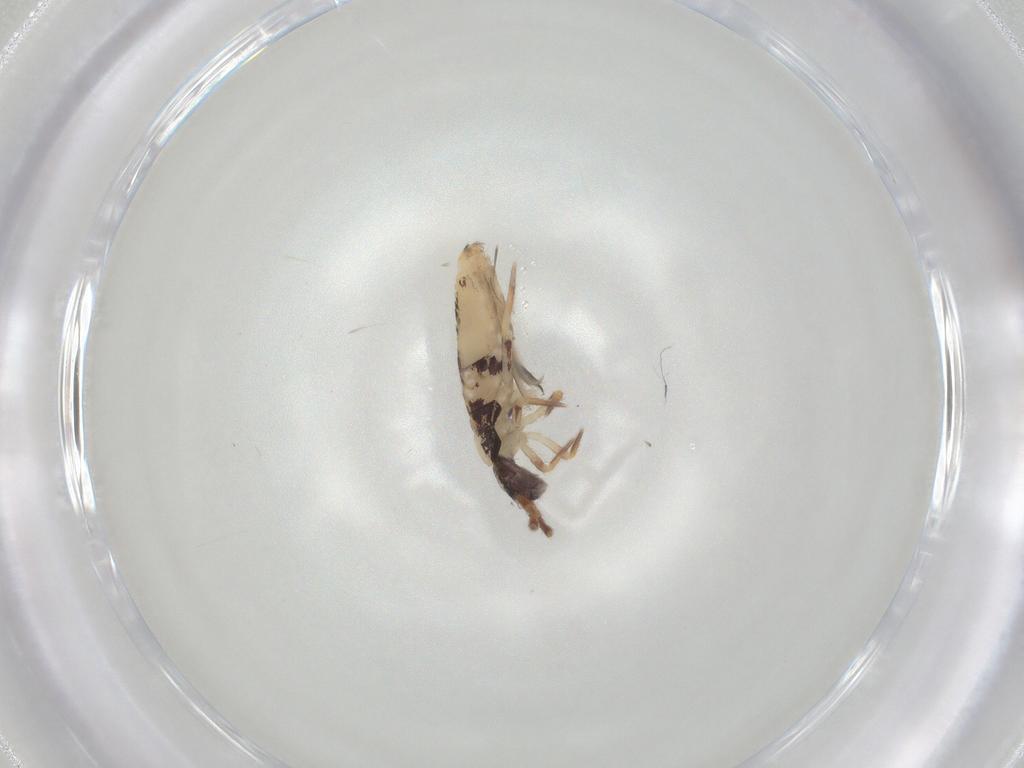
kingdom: Animalia
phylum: Arthropoda
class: Collembola
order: Entomobryomorpha
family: Entomobryidae
